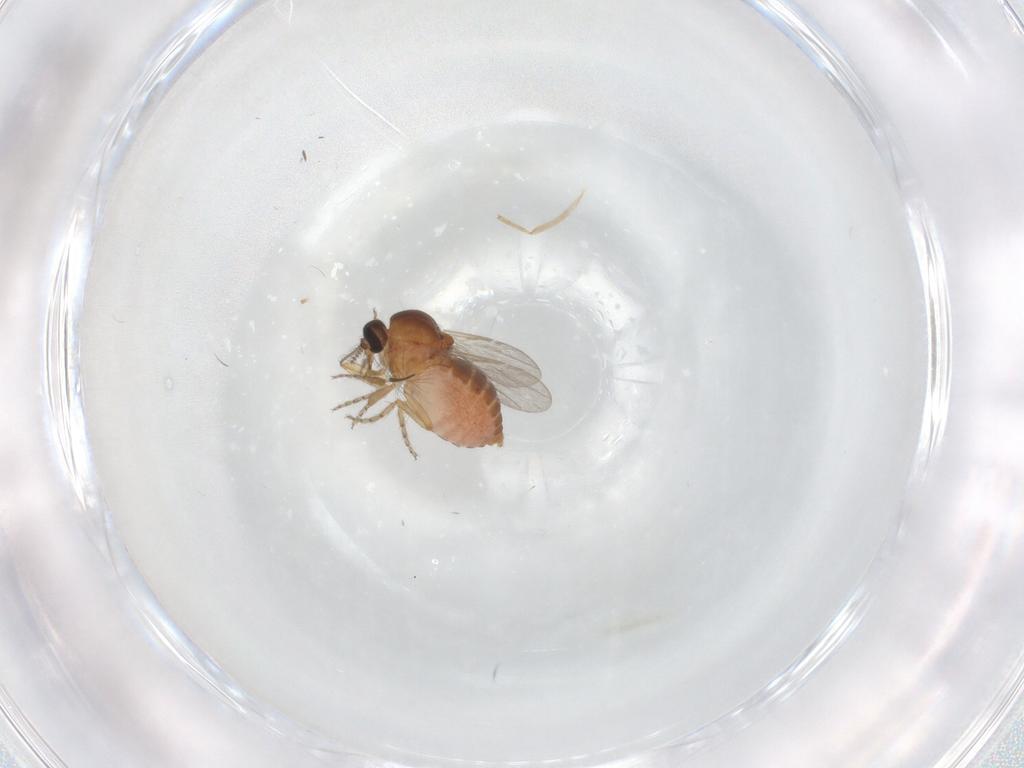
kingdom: Animalia
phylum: Arthropoda
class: Insecta
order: Diptera
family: Ceratopogonidae
